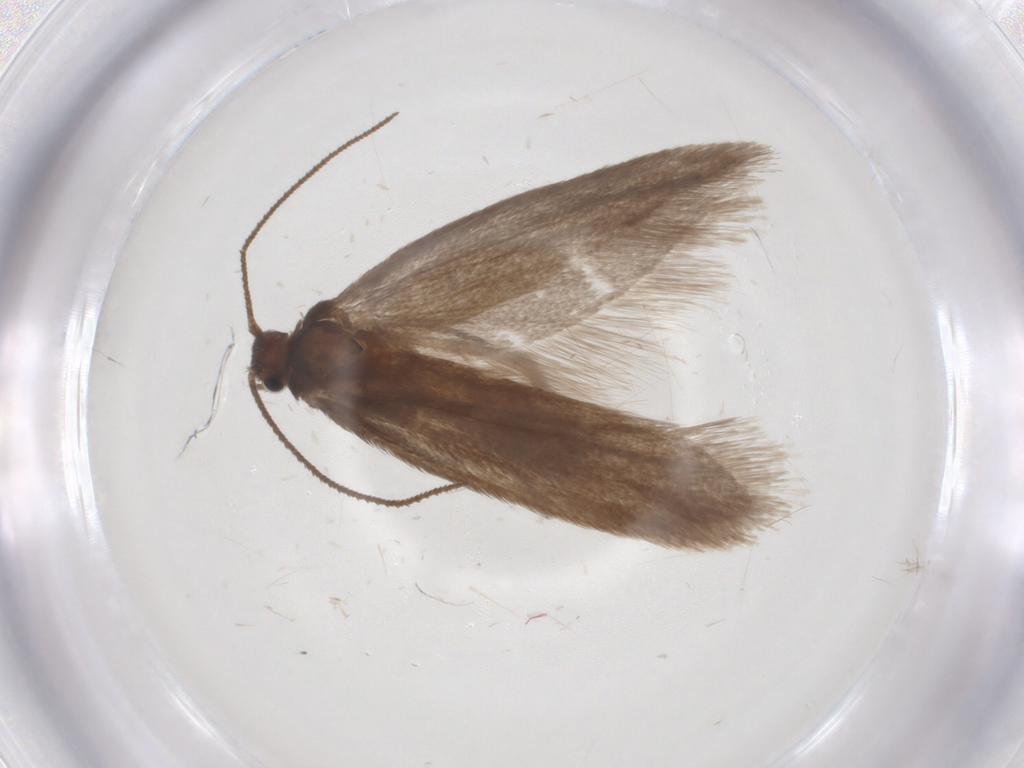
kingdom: Animalia
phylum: Arthropoda
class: Insecta
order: Lepidoptera
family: Limacodidae
